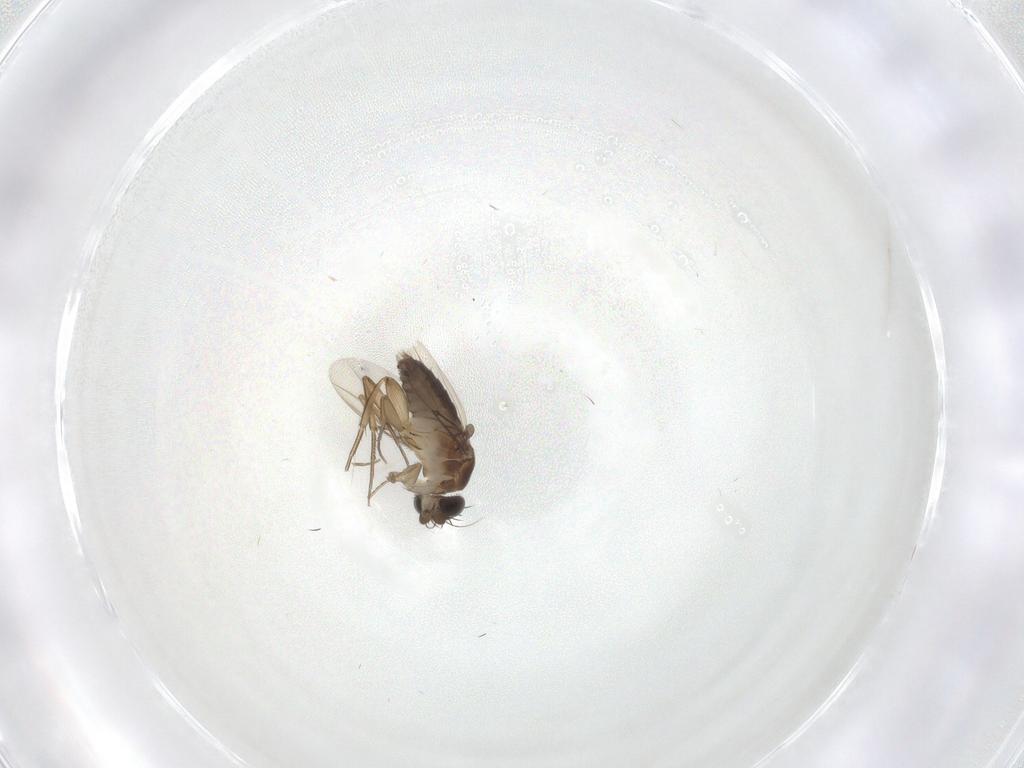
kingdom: Animalia
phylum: Arthropoda
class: Insecta
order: Diptera
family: Phoridae
